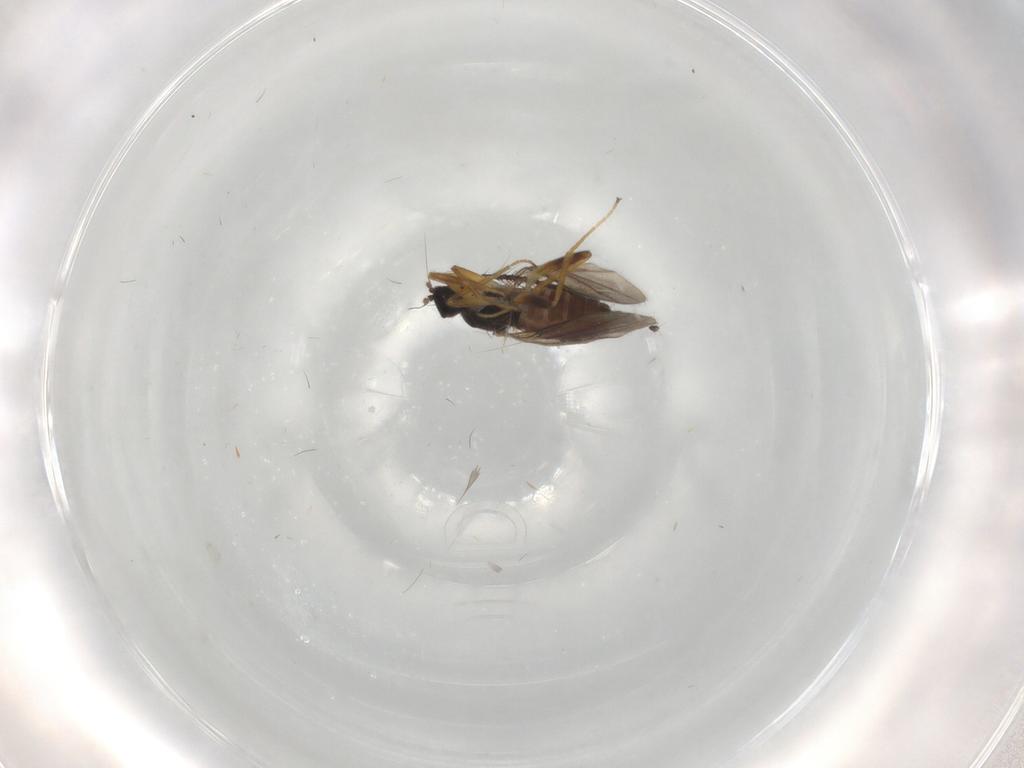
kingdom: Animalia
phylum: Arthropoda
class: Insecta
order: Diptera
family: Hybotidae
